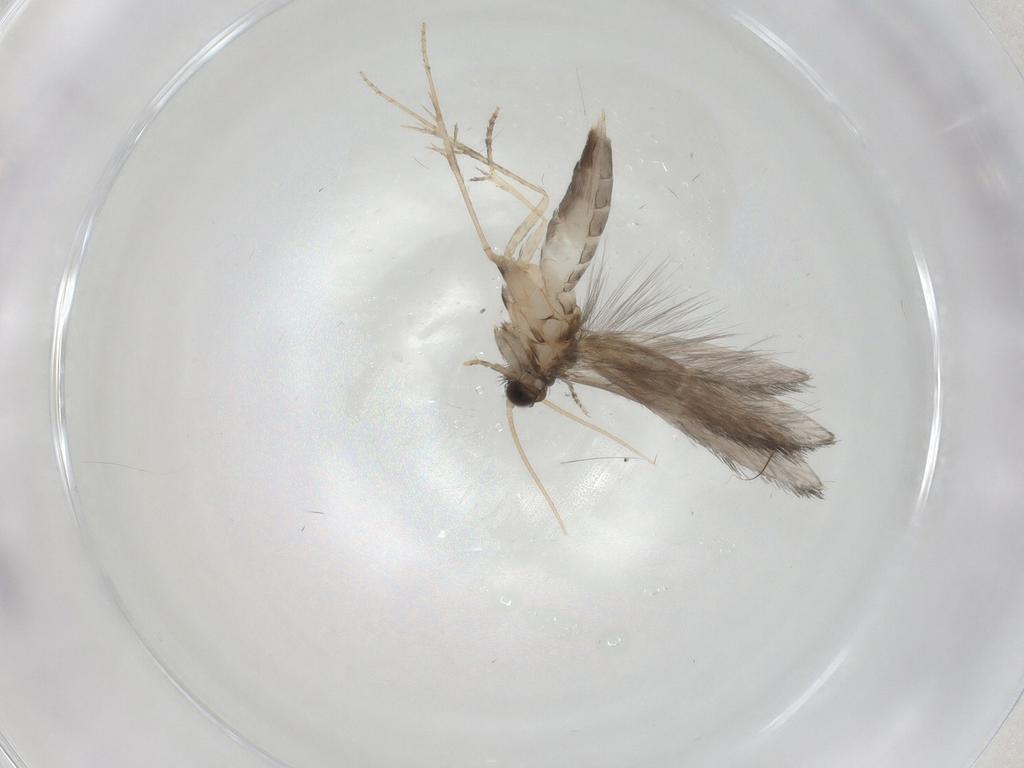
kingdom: Animalia
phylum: Arthropoda
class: Insecta
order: Trichoptera
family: Hydroptilidae
